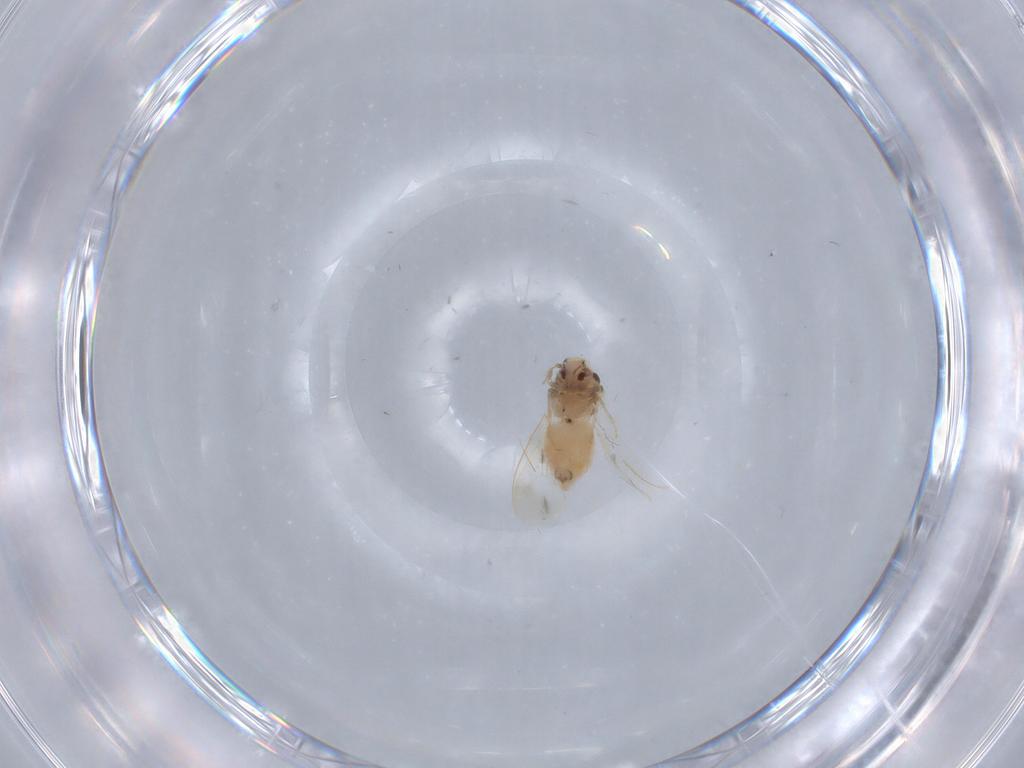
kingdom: Animalia
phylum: Arthropoda
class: Insecta
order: Hemiptera
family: Aleyrodidae
